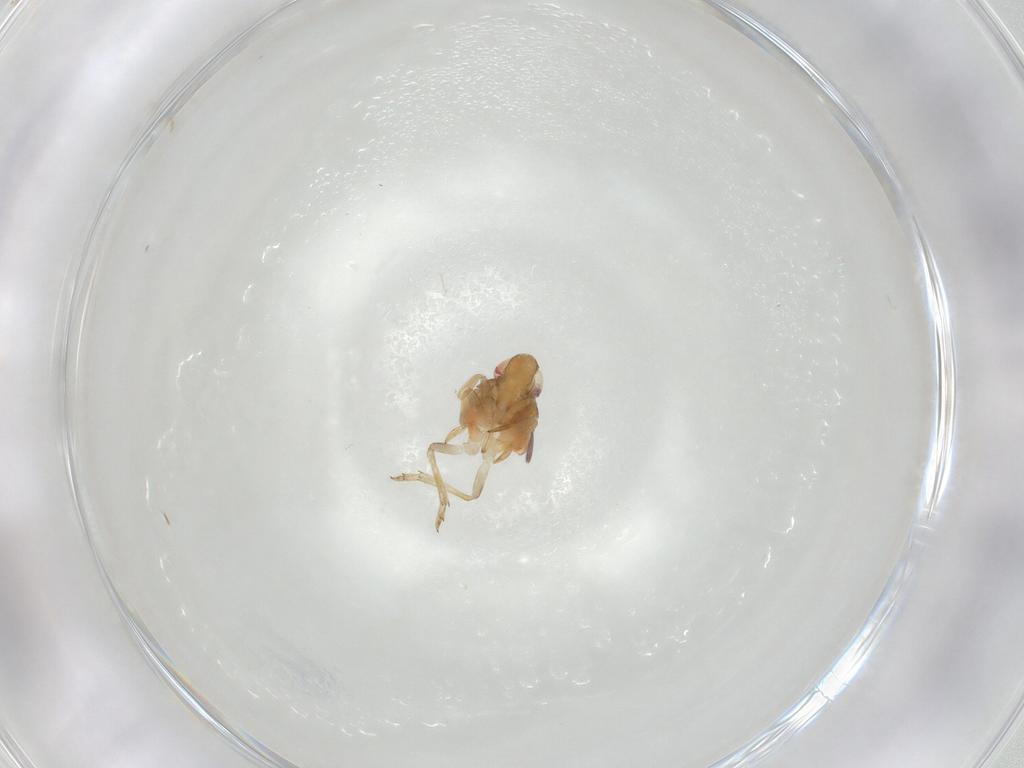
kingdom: Animalia
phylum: Arthropoda
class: Insecta
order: Hemiptera
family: Issidae
